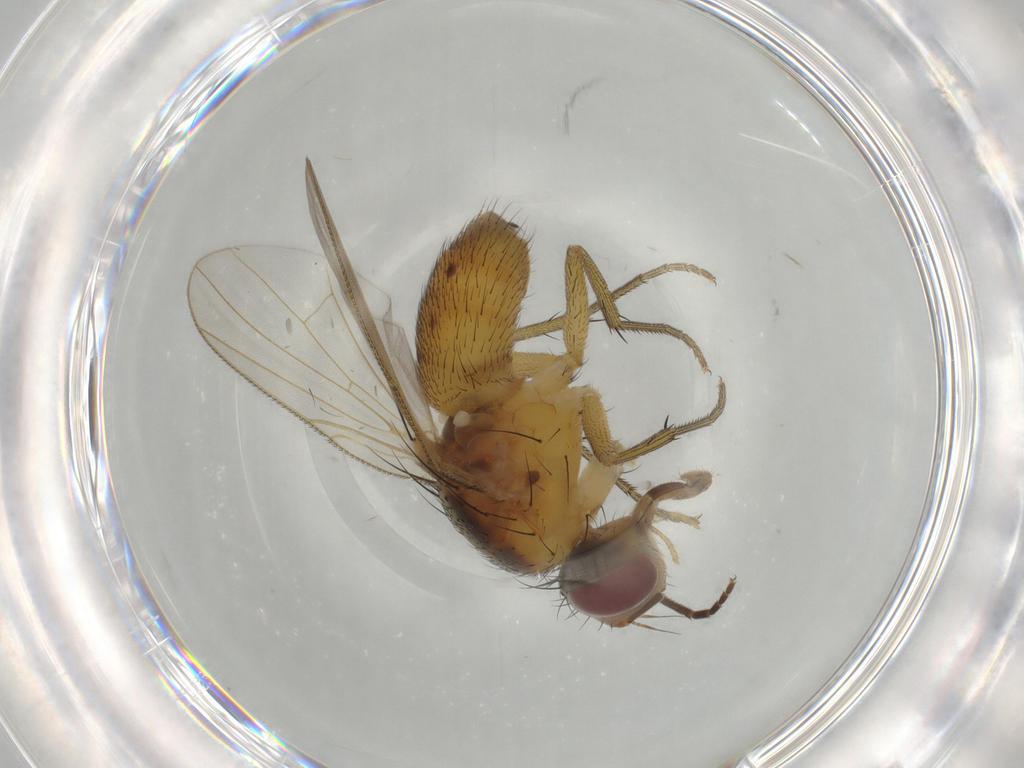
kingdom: Animalia
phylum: Arthropoda
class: Insecta
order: Diptera
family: Muscidae
